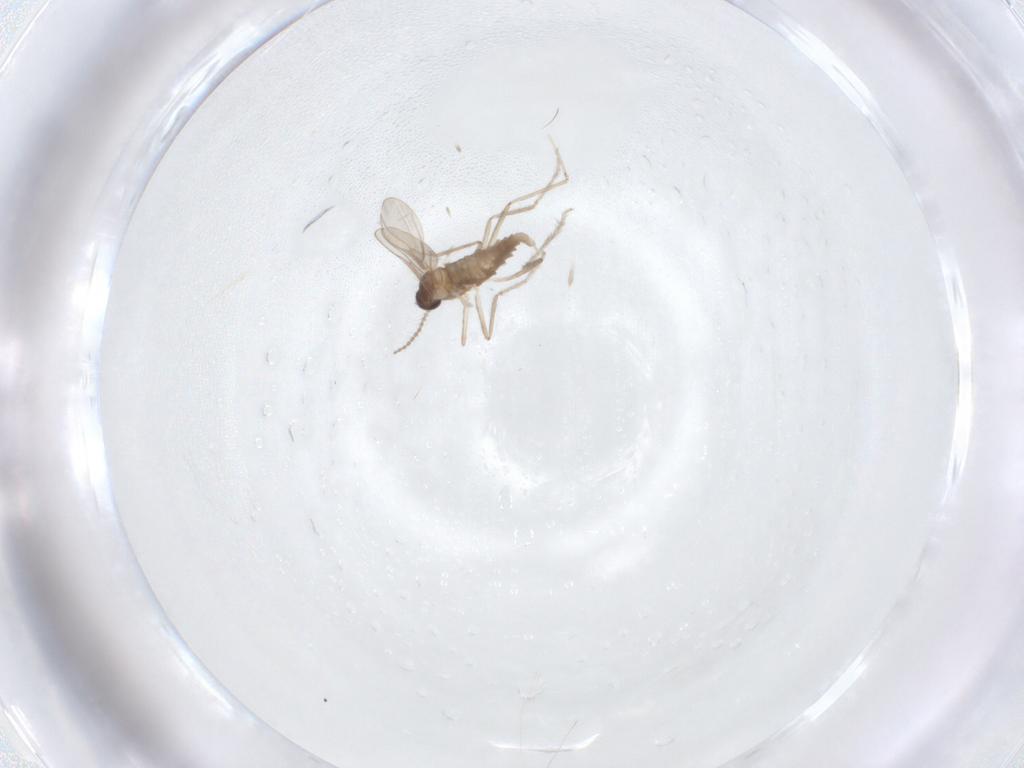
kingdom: Animalia
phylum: Arthropoda
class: Insecta
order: Diptera
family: Cecidomyiidae
